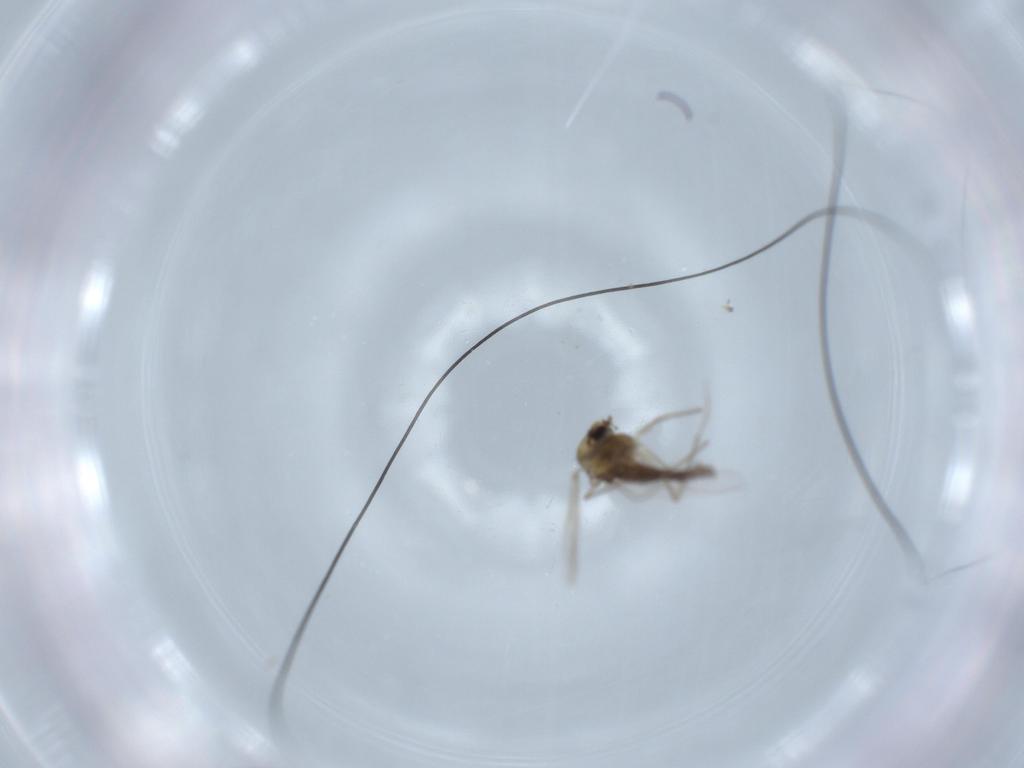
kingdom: Animalia
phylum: Arthropoda
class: Insecta
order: Diptera
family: Chironomidae
